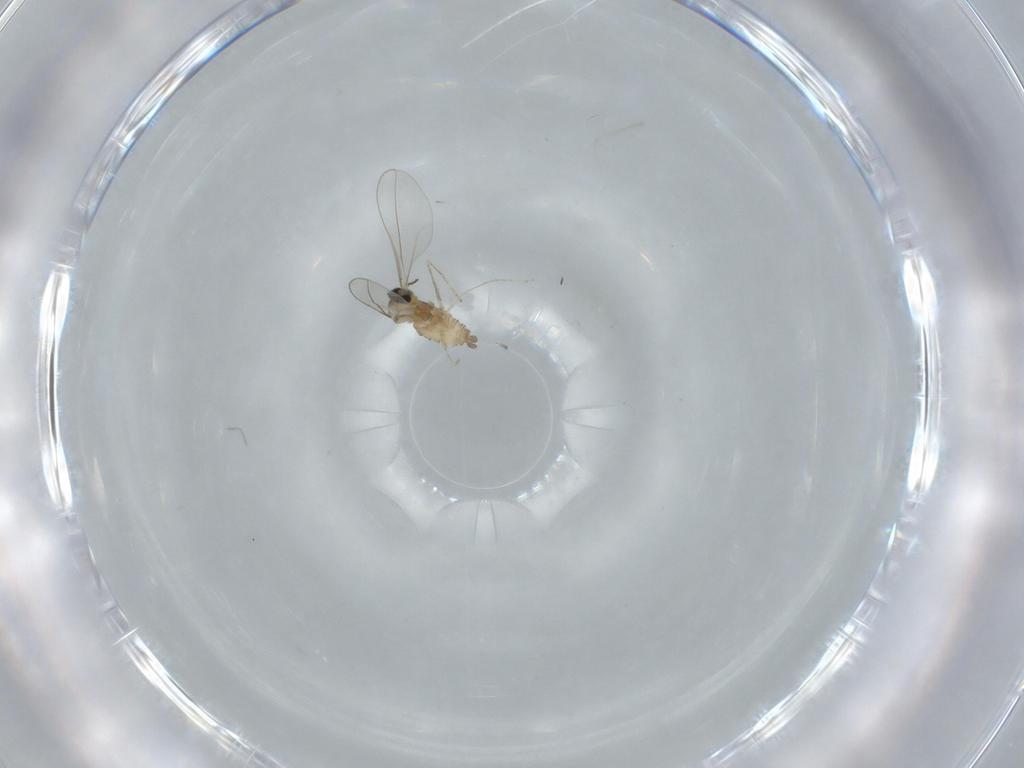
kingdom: Animalia
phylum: Arthropoda
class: Insecta
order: Diptera
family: Cecidomyiidae
